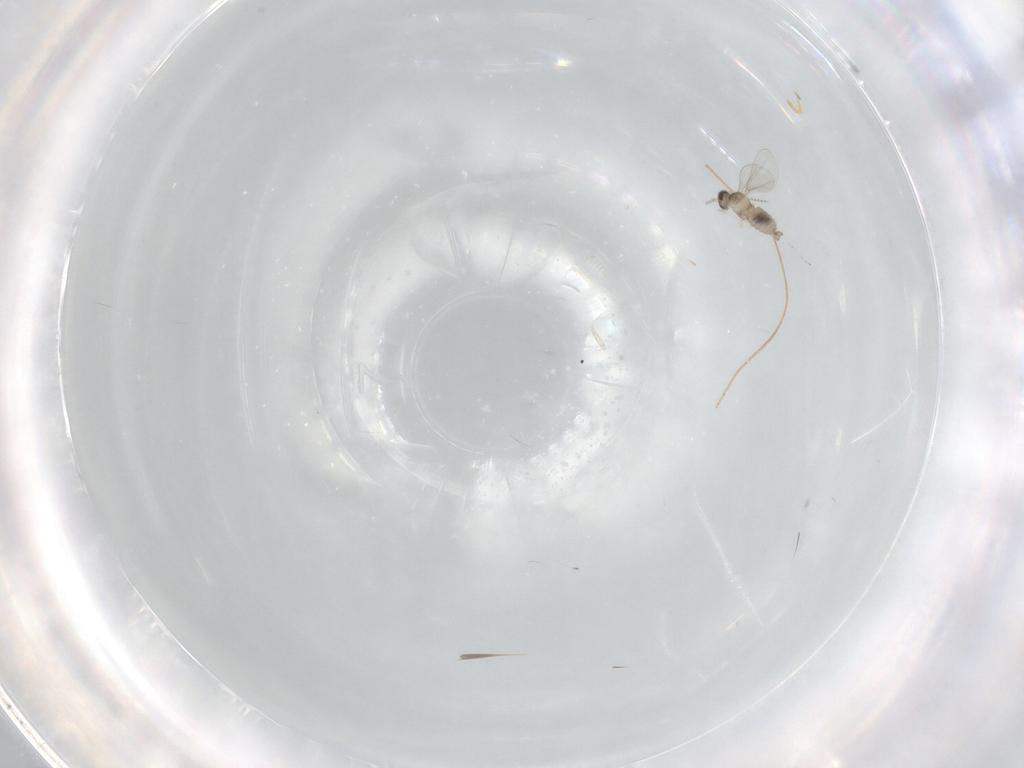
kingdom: Animalia
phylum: Arthropoda
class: Insecta
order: Diptera
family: Cecidomyiidae
